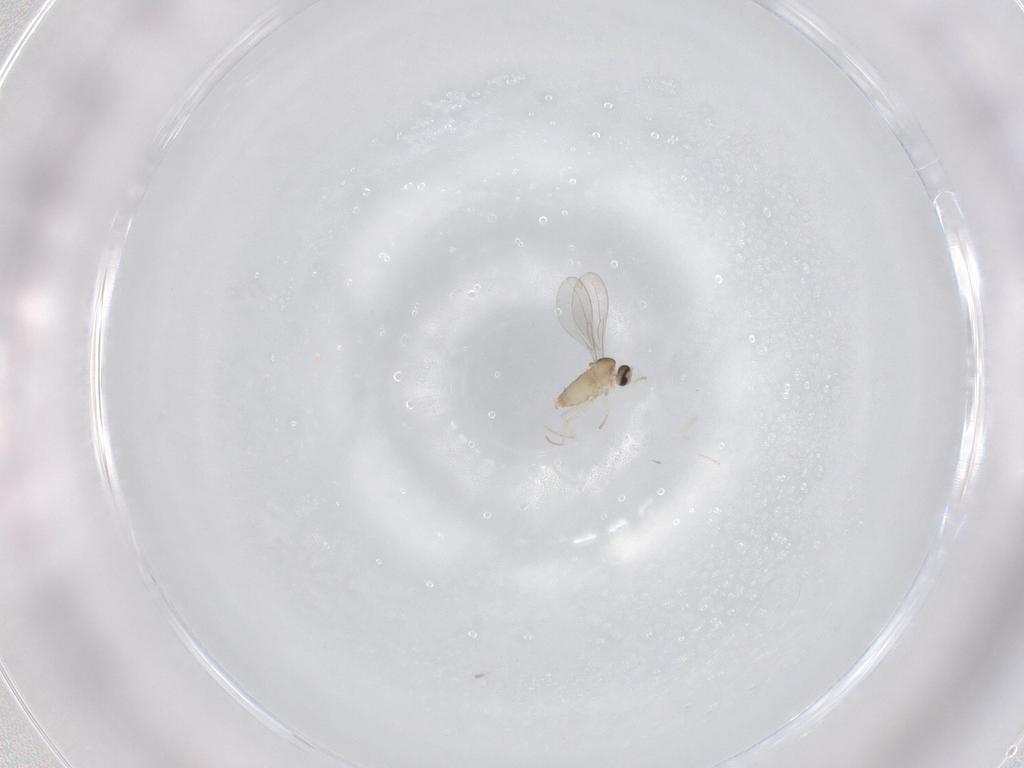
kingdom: Animalia
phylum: Arthropoda
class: Insecta
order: Diptera
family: Cecidomyiidae
